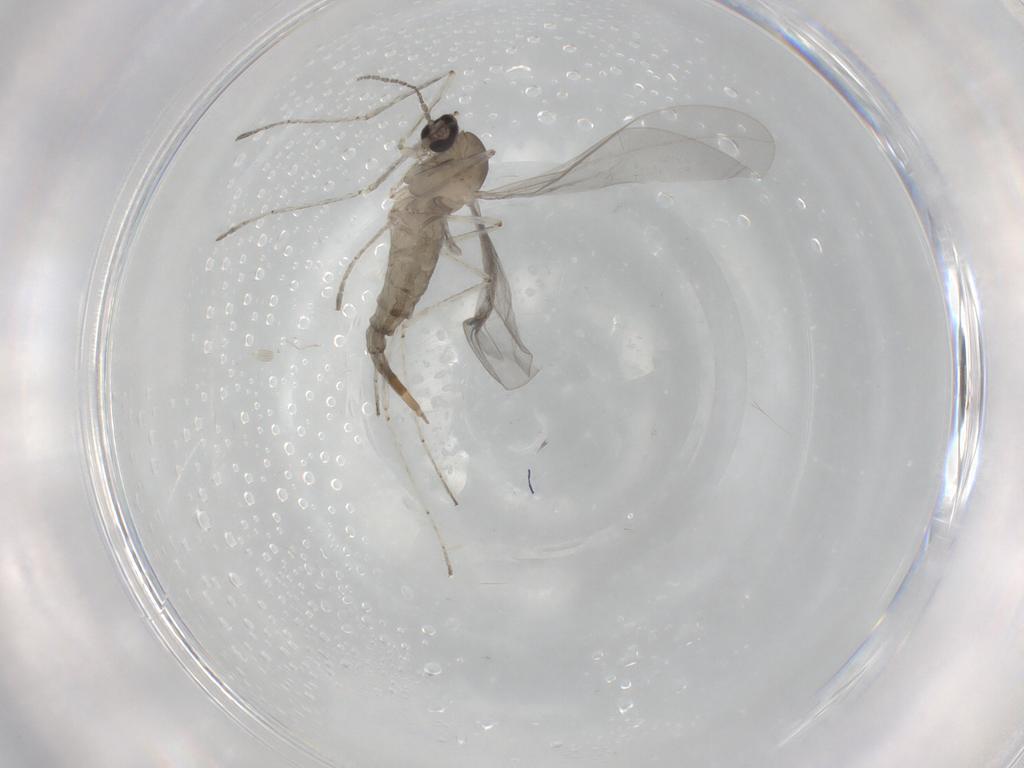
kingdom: Animalia
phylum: Arthropoda
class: Insecta
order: Diptera
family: Cecidomyiidae
